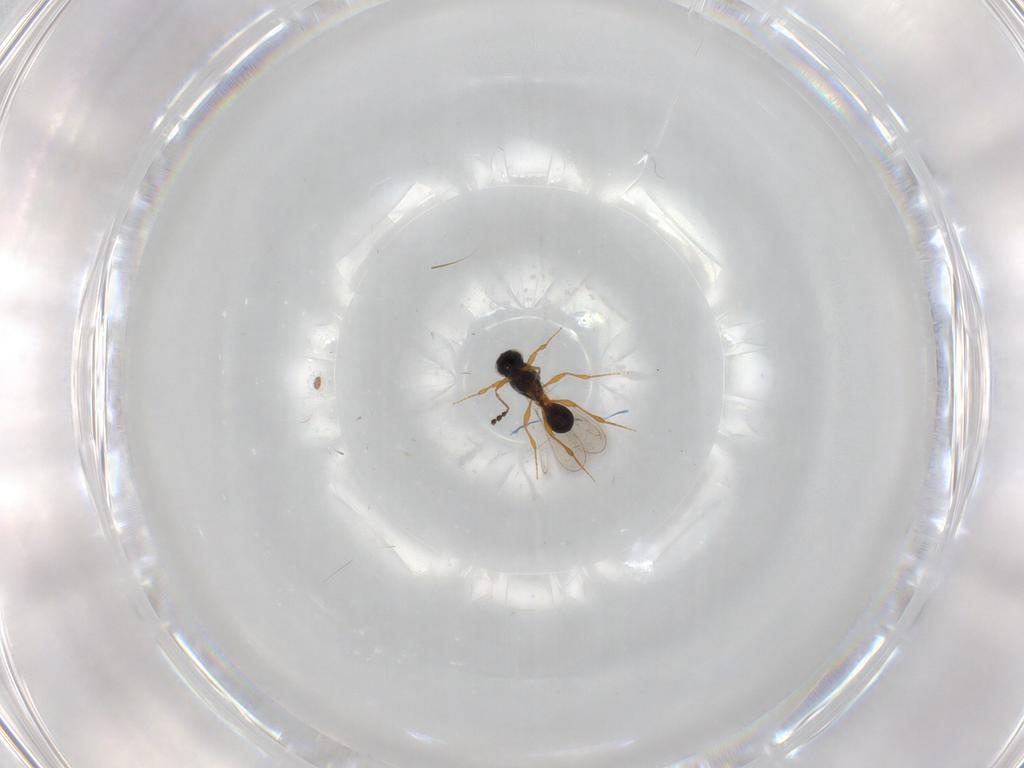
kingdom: Animalia
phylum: Arthropoda
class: Insecta
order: Hymenoptera
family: Platygastridae
